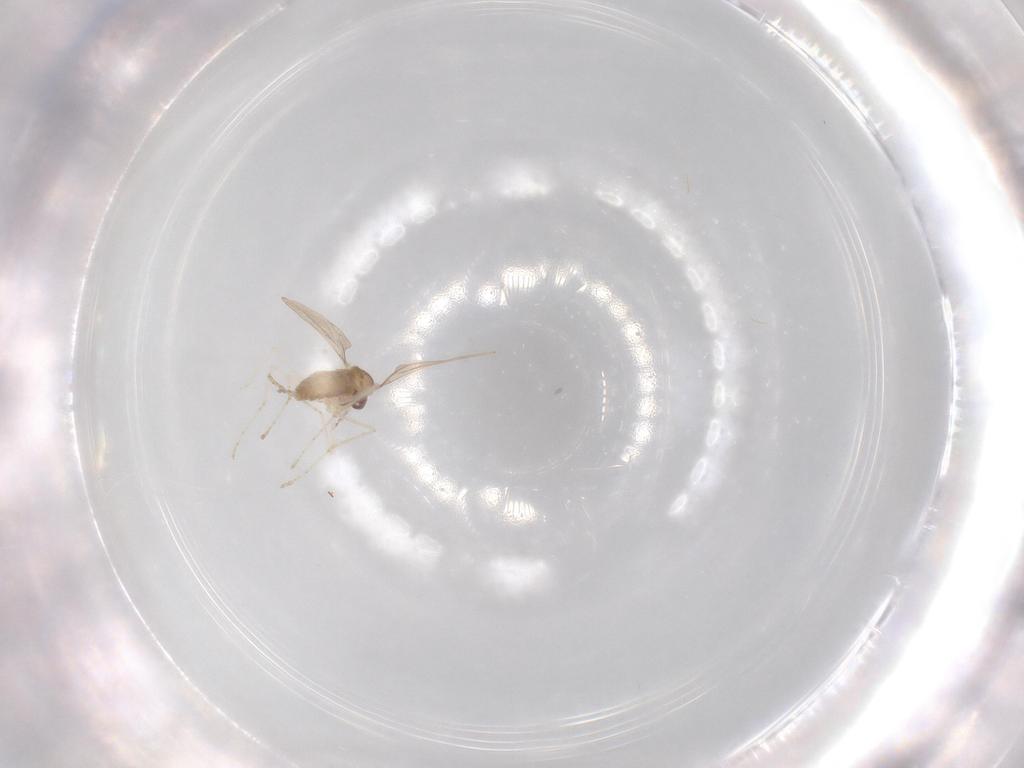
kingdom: Animalia
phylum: Arthropoda
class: Insecta
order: Diptera
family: Cecidomyiidae
